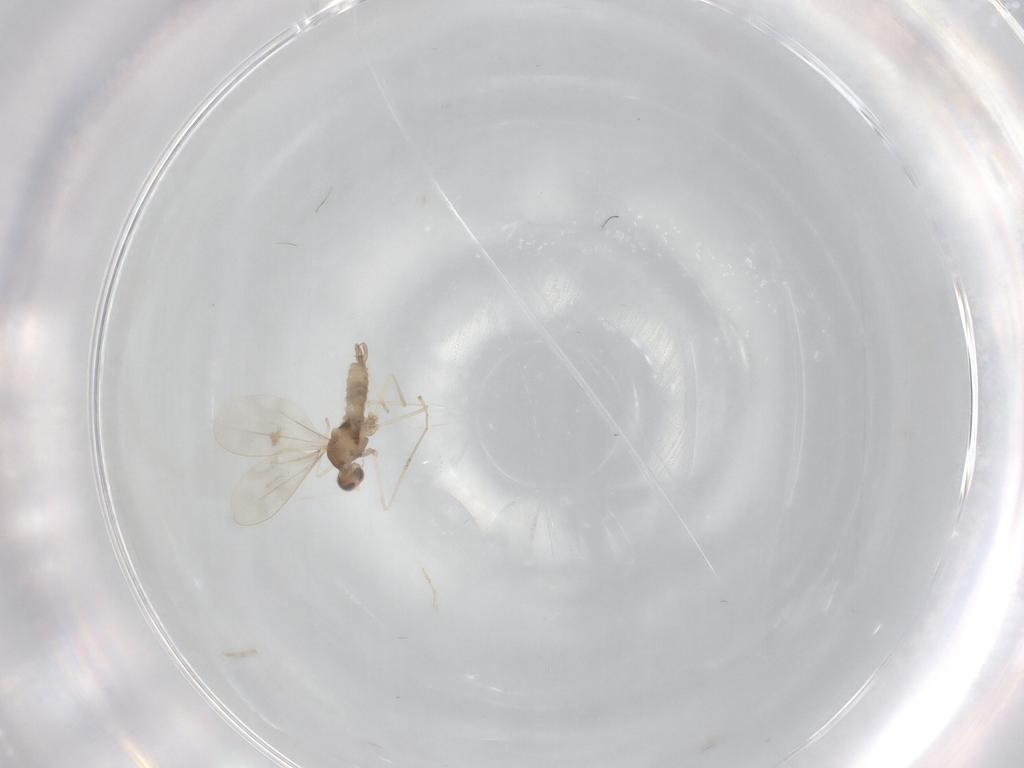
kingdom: Animalia
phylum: Arthropoda
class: Insecta
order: Diptera
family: Cecidomyiidae
